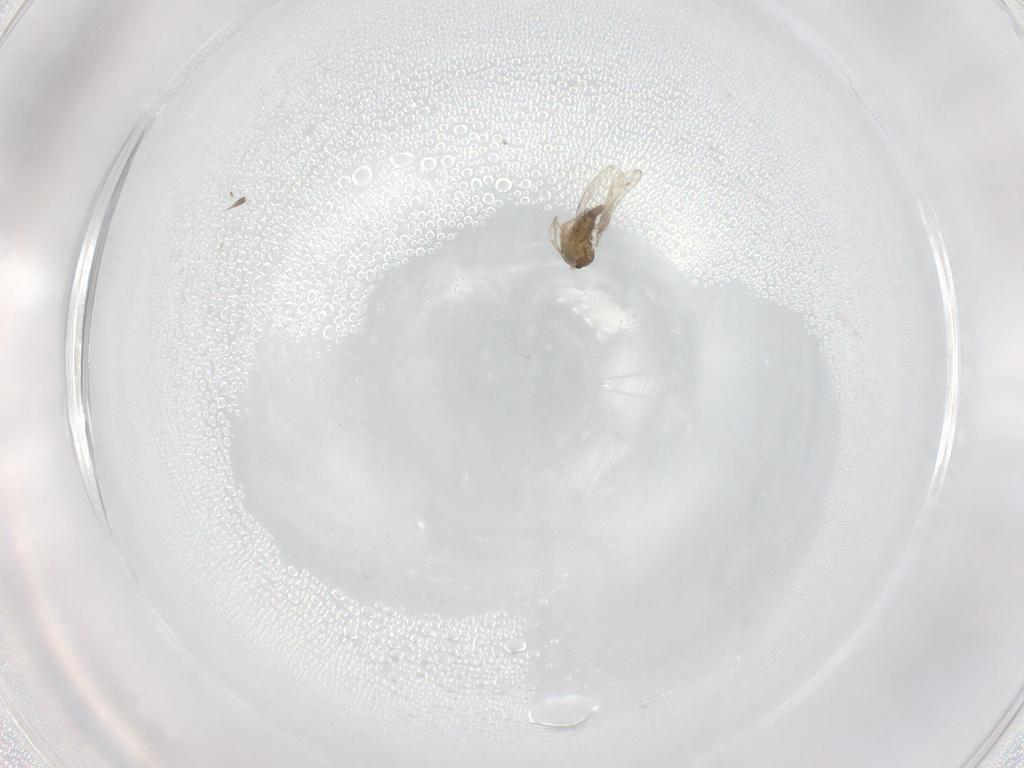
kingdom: Animalia
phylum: Arthropoda
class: Insecta
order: Diptera
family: Cecidomyiidae
